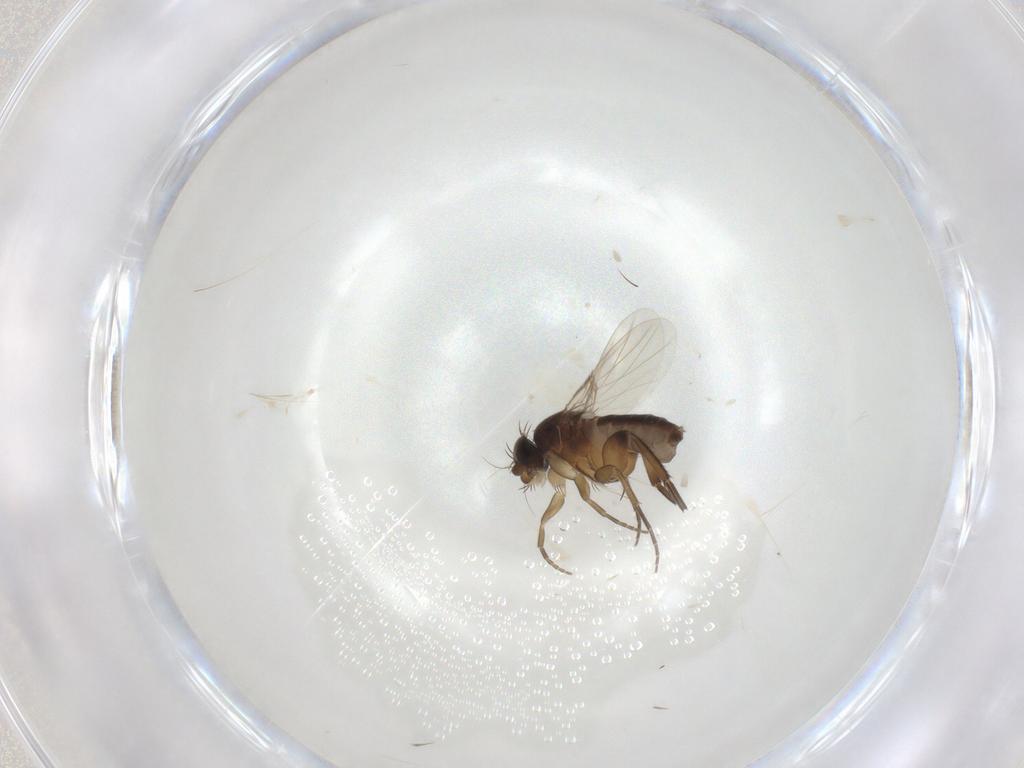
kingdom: Animalia
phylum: Arthropoda
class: Insecta
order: Diptera
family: Phoridae
